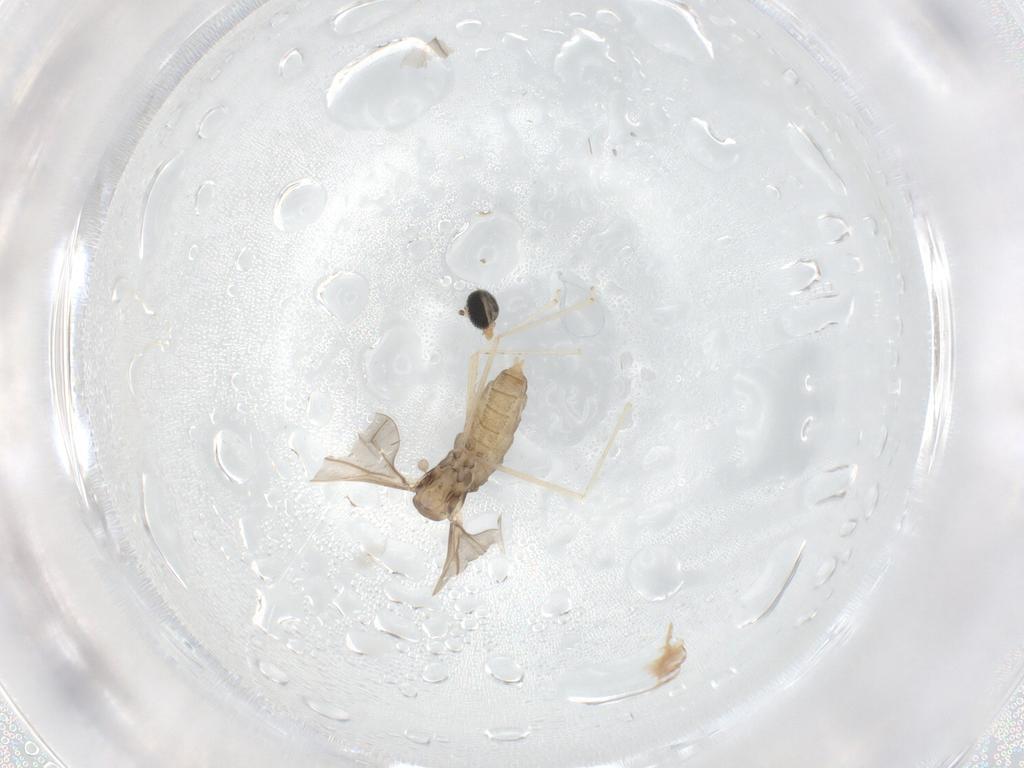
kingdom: Animalia
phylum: Arthropoda
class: Insecta
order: Diptera
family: Cecidomyiidae
